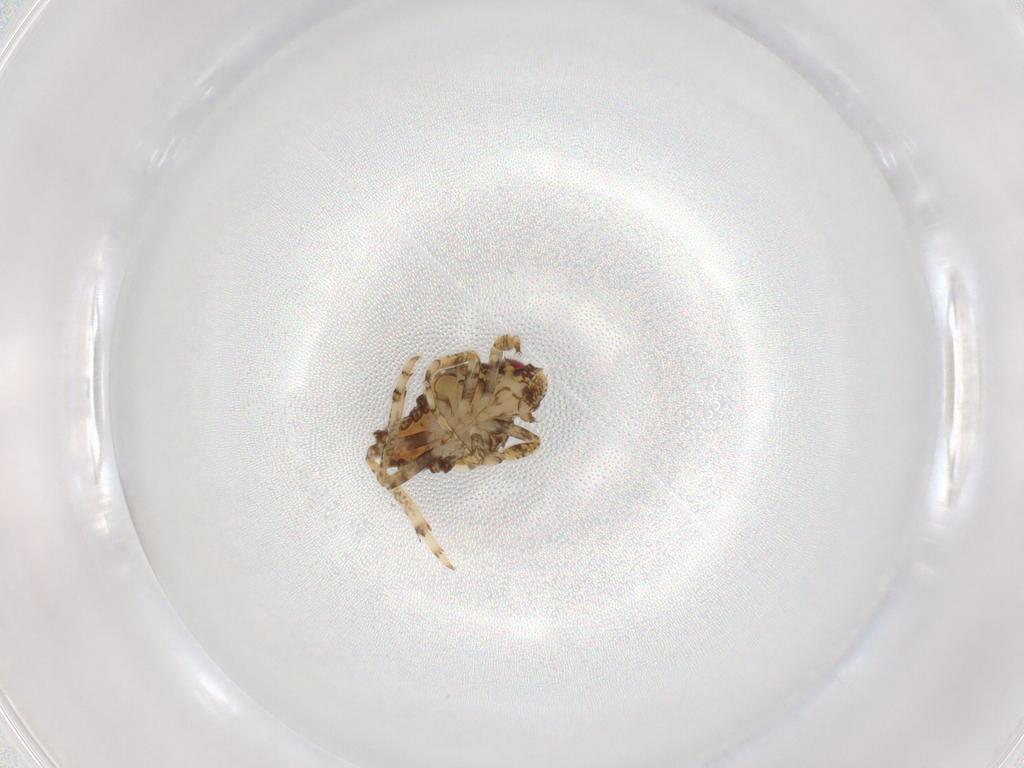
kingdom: Animalia
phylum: Arthropoda
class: Insecta
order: Hemiptera
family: Issidae
